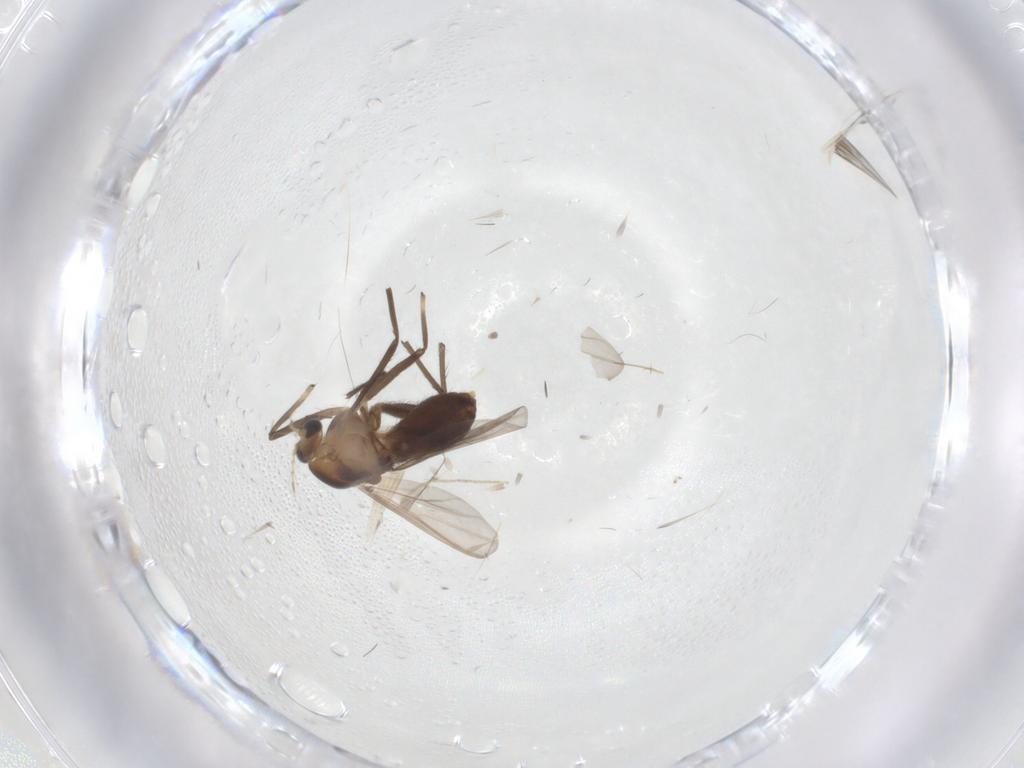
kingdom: Animalia
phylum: Arthropoda
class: Insecta
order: Diptera
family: Chironomidae
